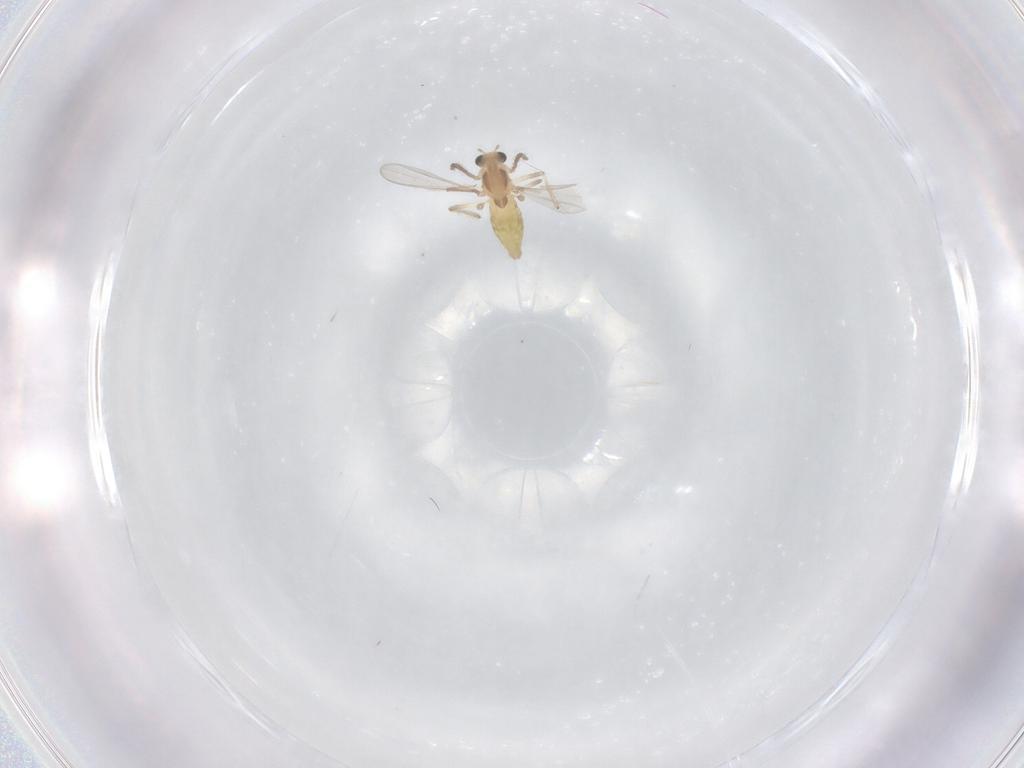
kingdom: Animalia
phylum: Arthropoda
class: Insecta
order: Diptera
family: Chironomidae
